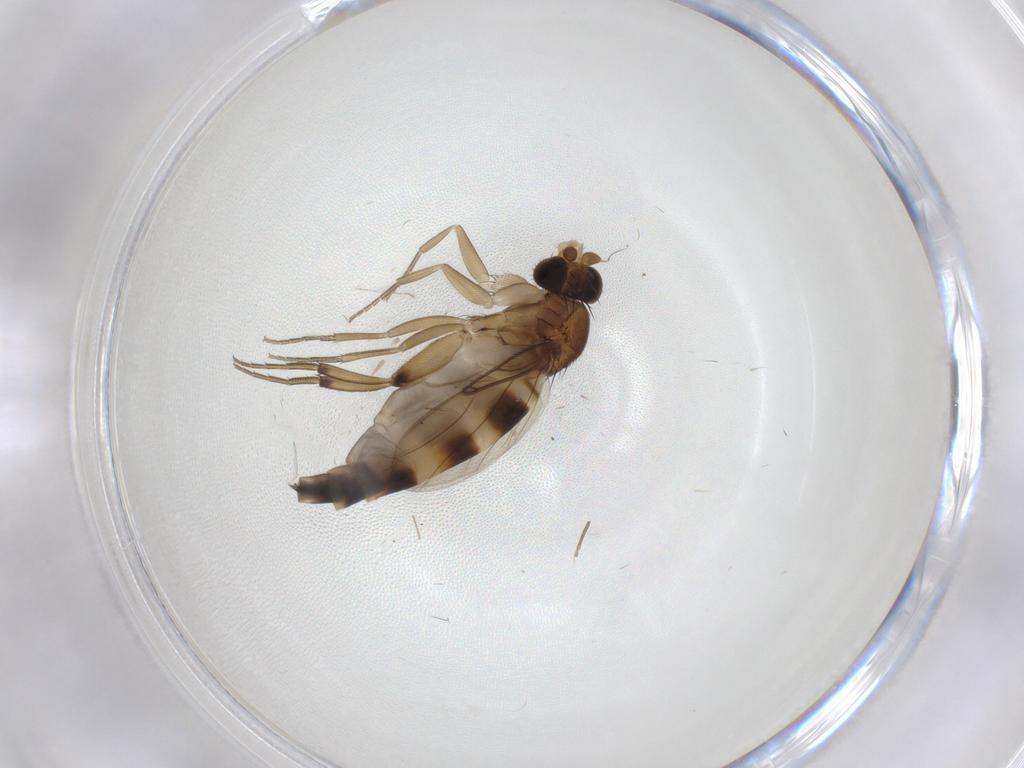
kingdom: Animalia
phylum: Arthropoda
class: Insecta
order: Diptera
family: Phoridae
